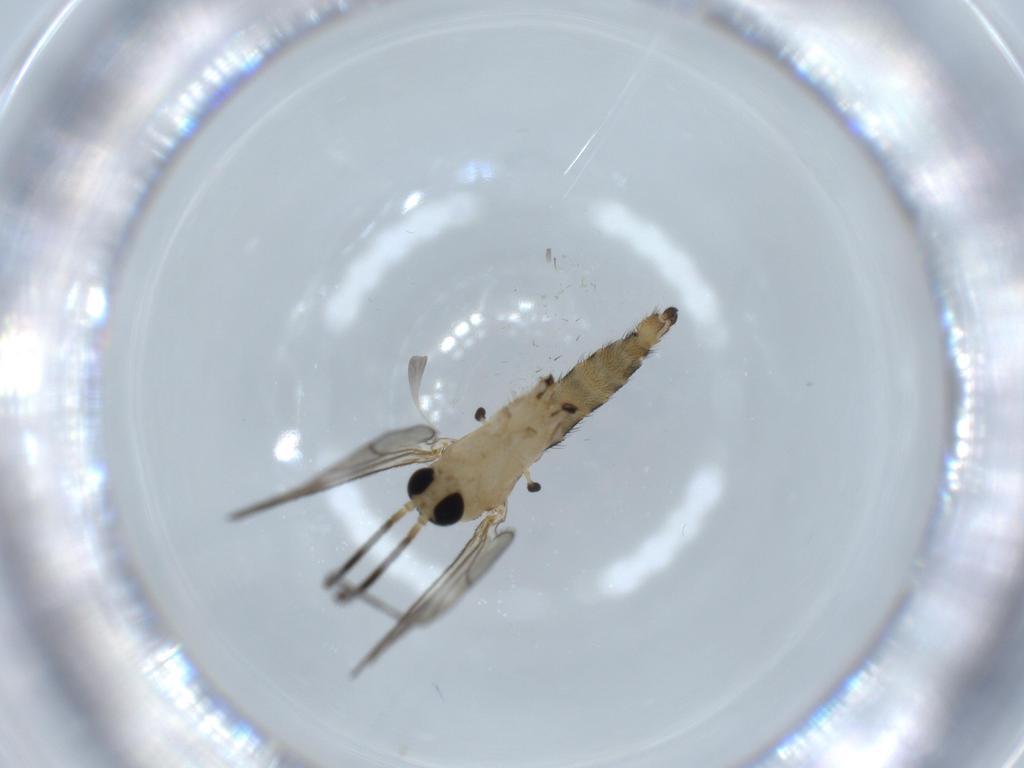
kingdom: Animalia
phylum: Arthropoda
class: Insecta
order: Diptera
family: Sciaridae
